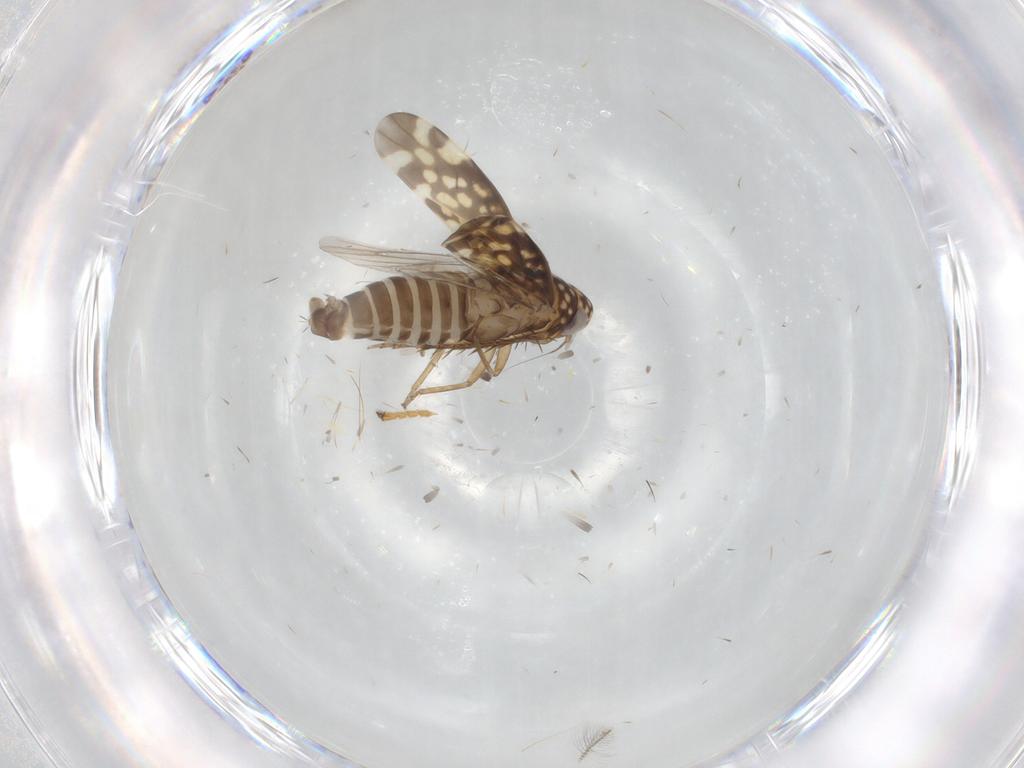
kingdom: Animalia
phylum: Arthropoda
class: Insecta
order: Hemiptera
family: Cicadellidae
